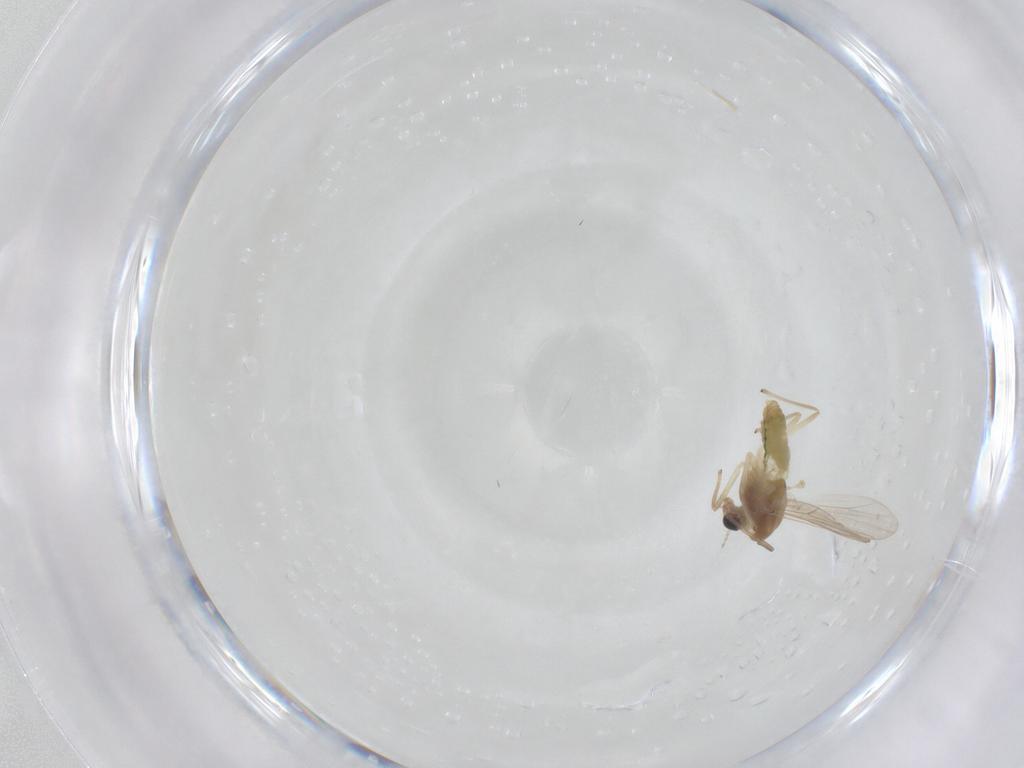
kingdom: Animalia
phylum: Arthropoda
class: Insecta
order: Diptera
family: Chironomidae
